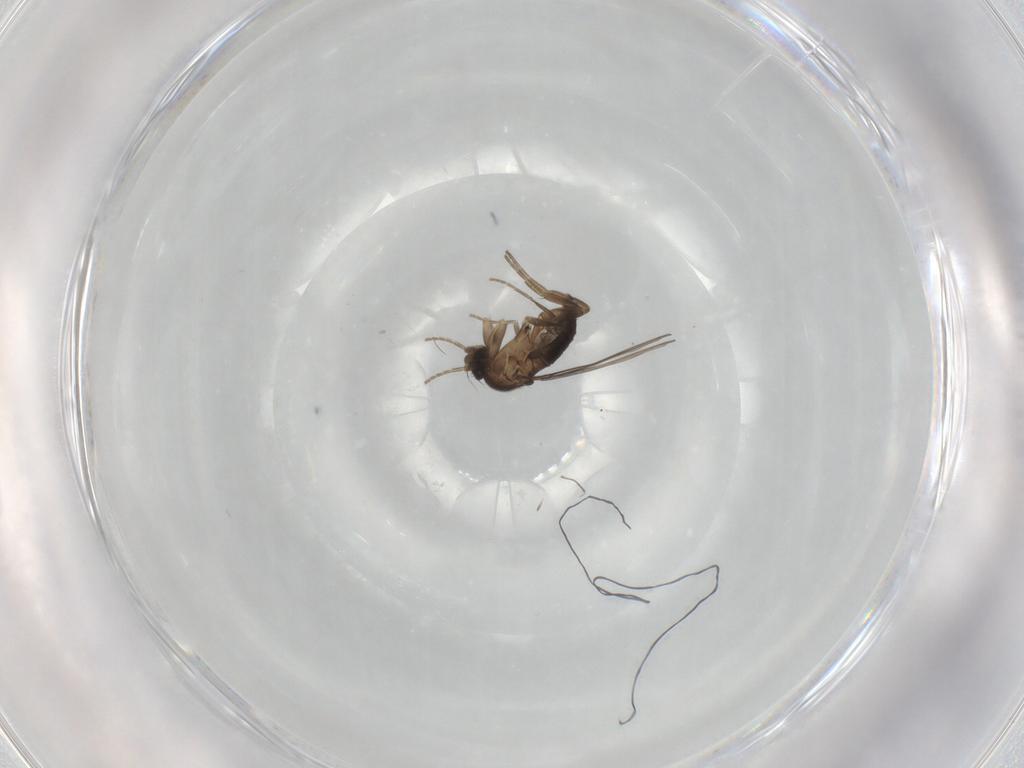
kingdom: Animalia
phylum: Arthropoda
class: Insecta
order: Diptera
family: Phoridae
